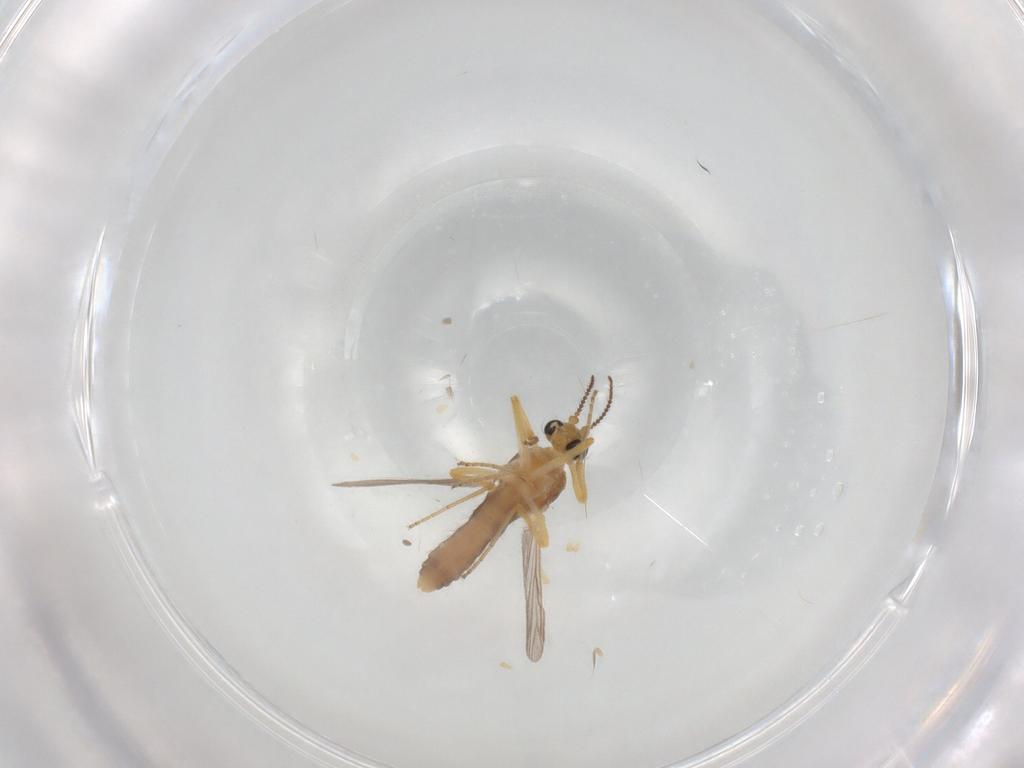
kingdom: Animalia
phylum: Arthropoda
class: Insecta
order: Diptera
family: Ceratopogonidae
